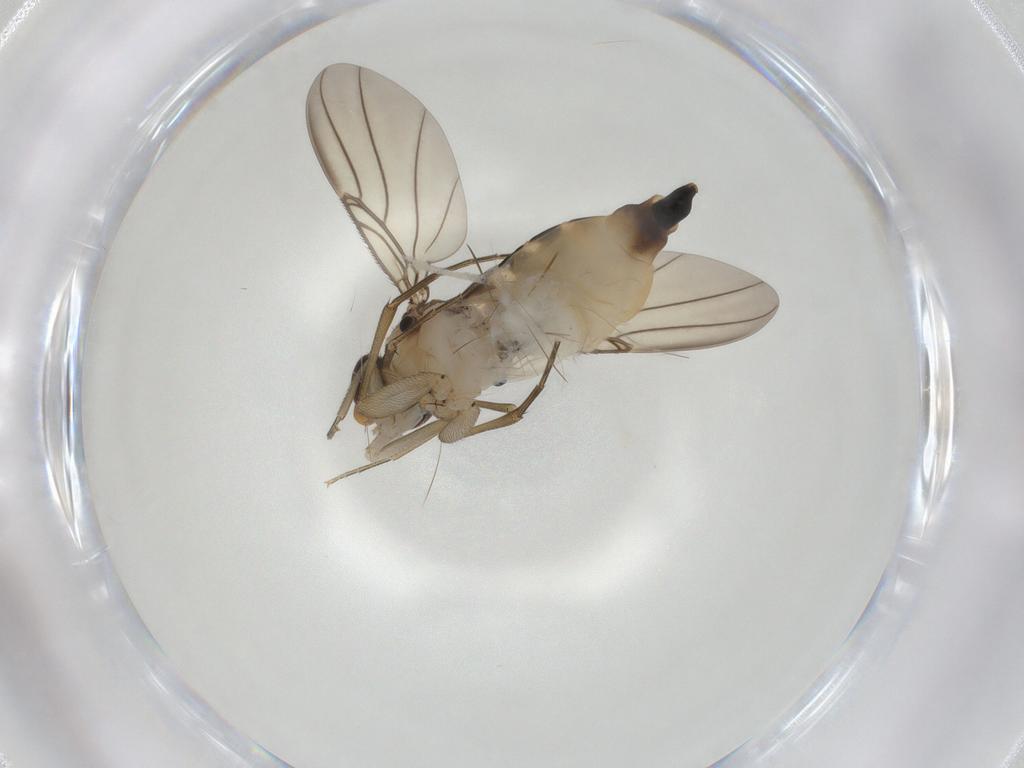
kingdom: Animalia
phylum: Arthropoda
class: Insecta
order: Diptera
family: Phoridae
